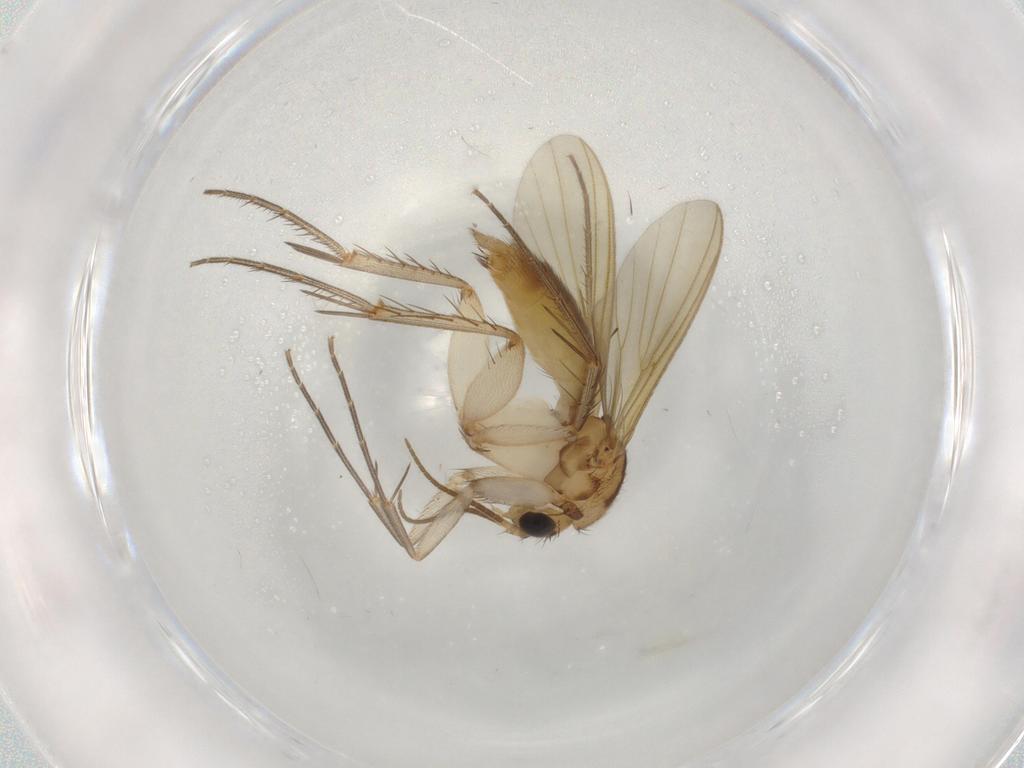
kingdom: Animalia
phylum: Arthropoda
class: Insecta
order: Diptera
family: Mycetophilidae
